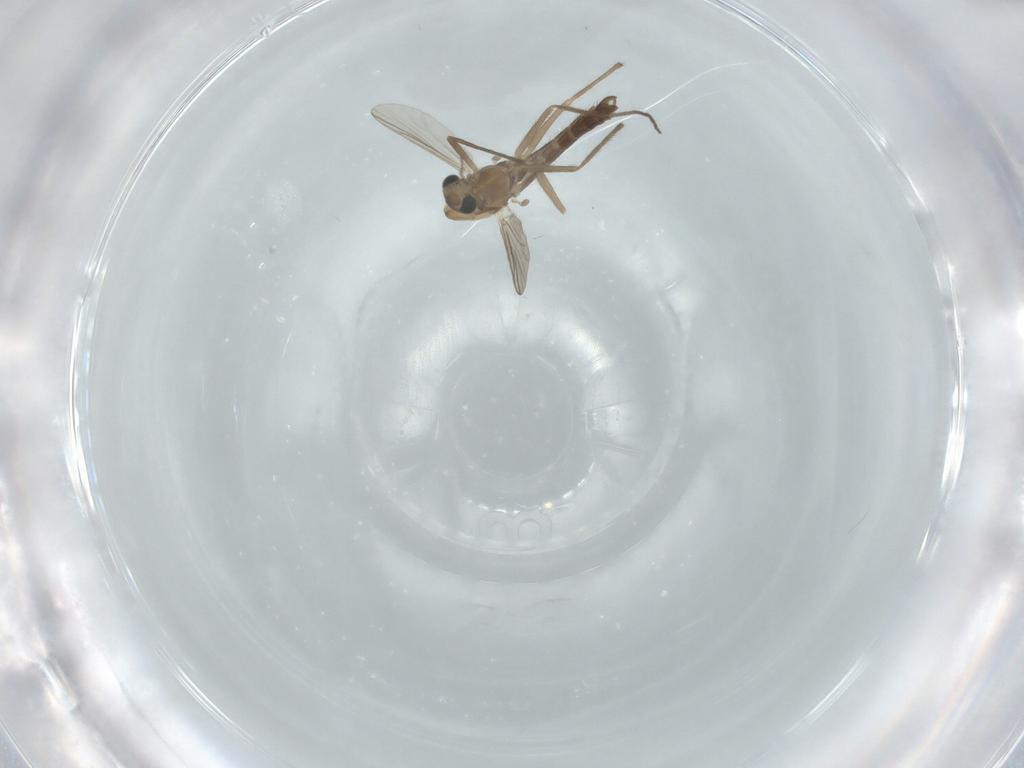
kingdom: Animalia
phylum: Arthropoda
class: Insecta
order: Diptera
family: Chironomidae
